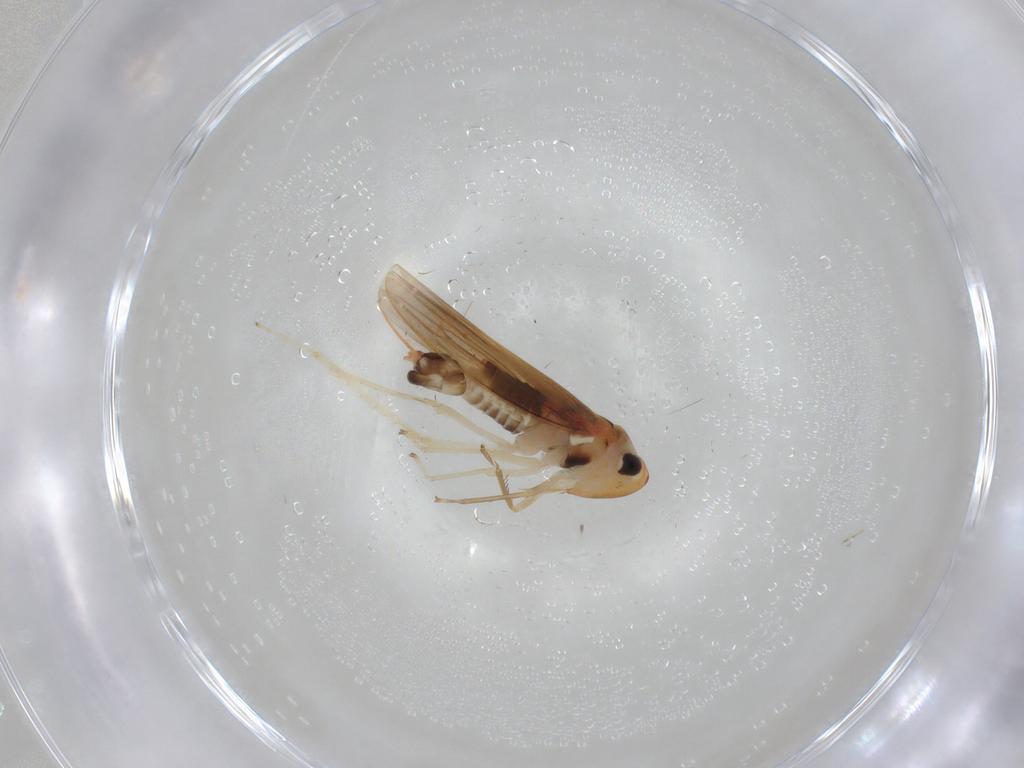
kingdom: Animalia
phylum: Arthropoda
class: Insecta
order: Hemiptera
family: Cicadellidae
